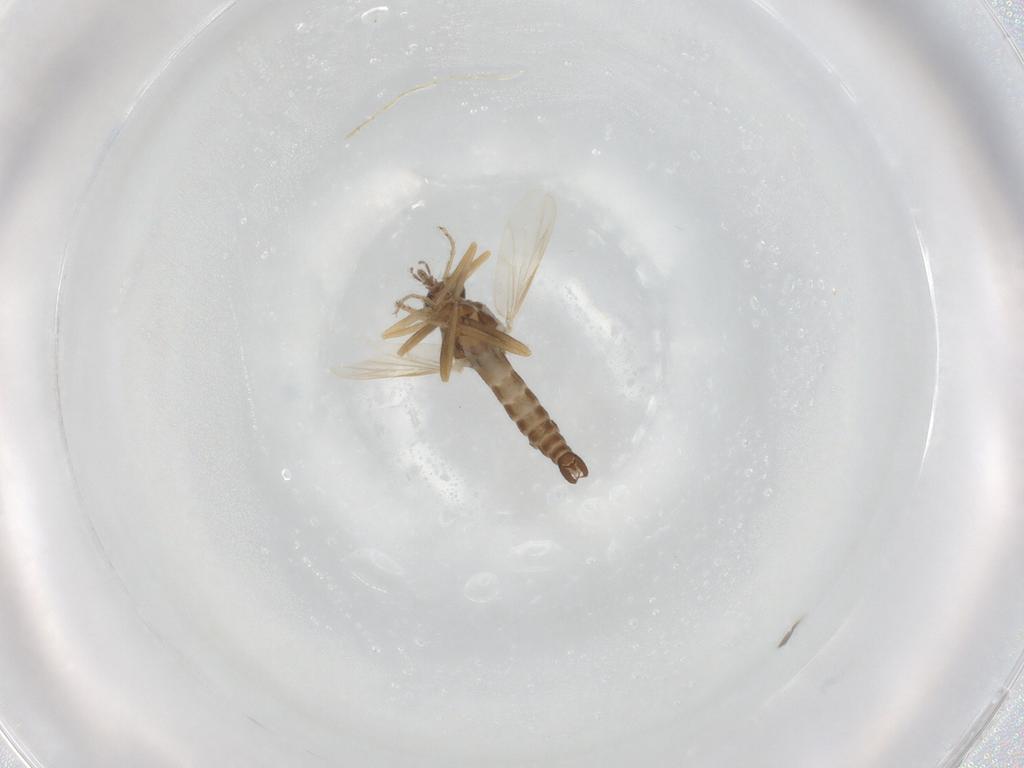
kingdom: Animalia
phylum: Arthropoda
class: Insecta
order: Diptera
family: Ceratopogonidae
